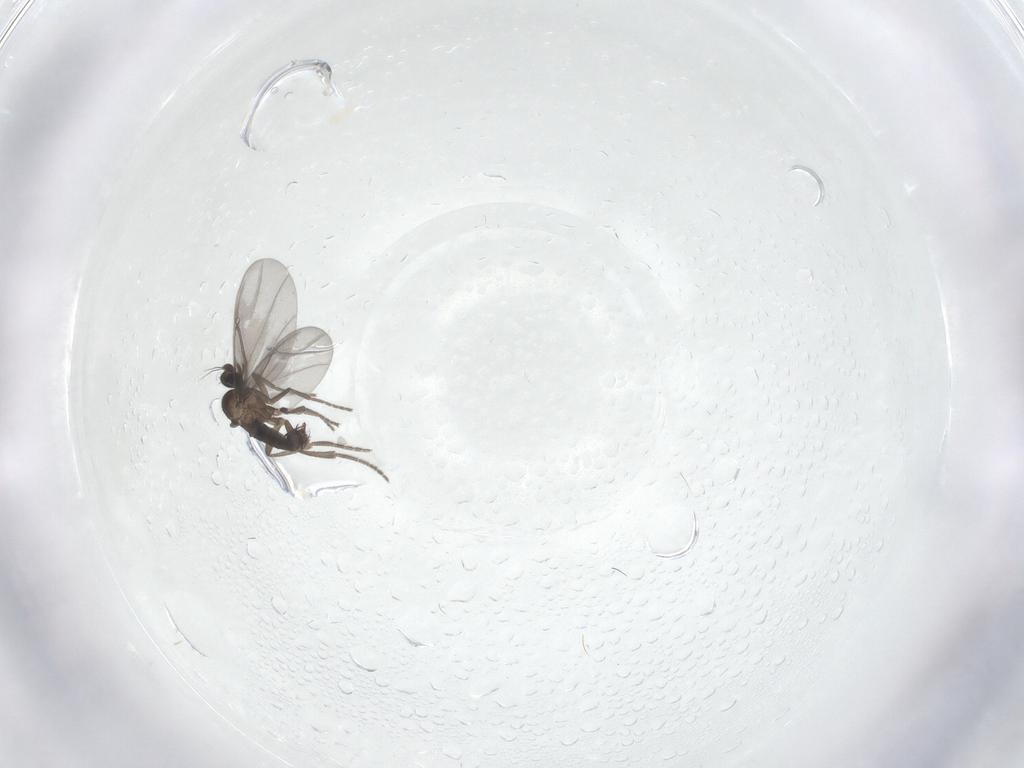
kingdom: Animalia
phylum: Arthropoda
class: Insecta
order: Diptera
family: Phoridae
